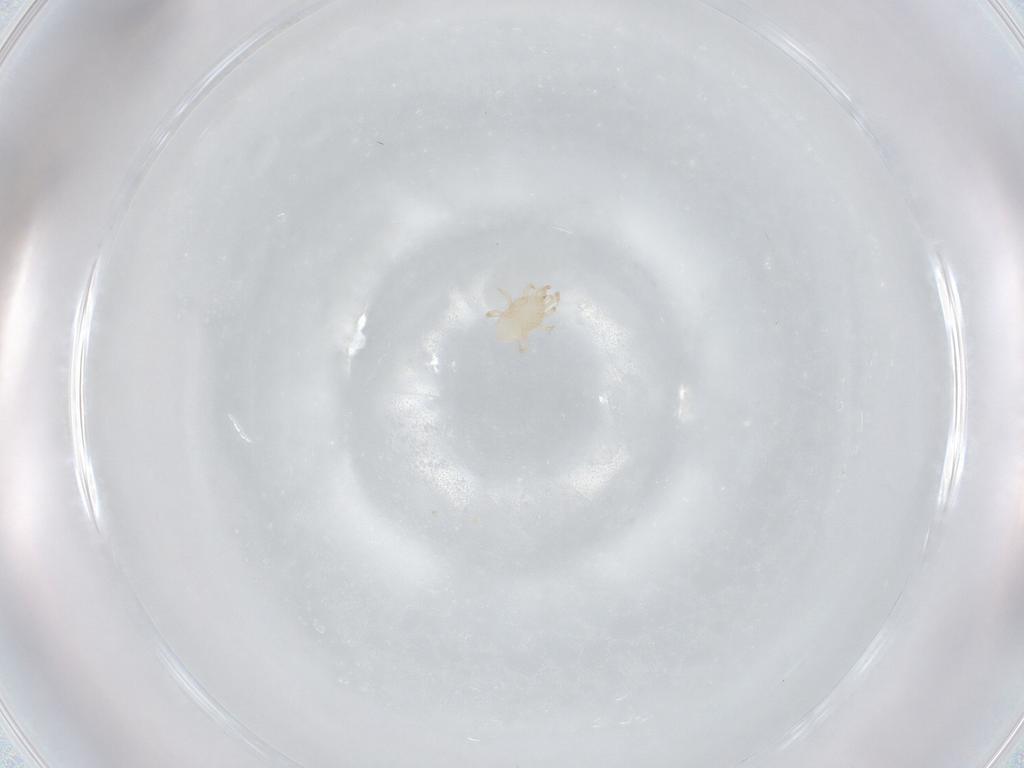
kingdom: Animalia
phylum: Arthropoda
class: Arachnida
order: Mesostigmata
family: Melicharidae
